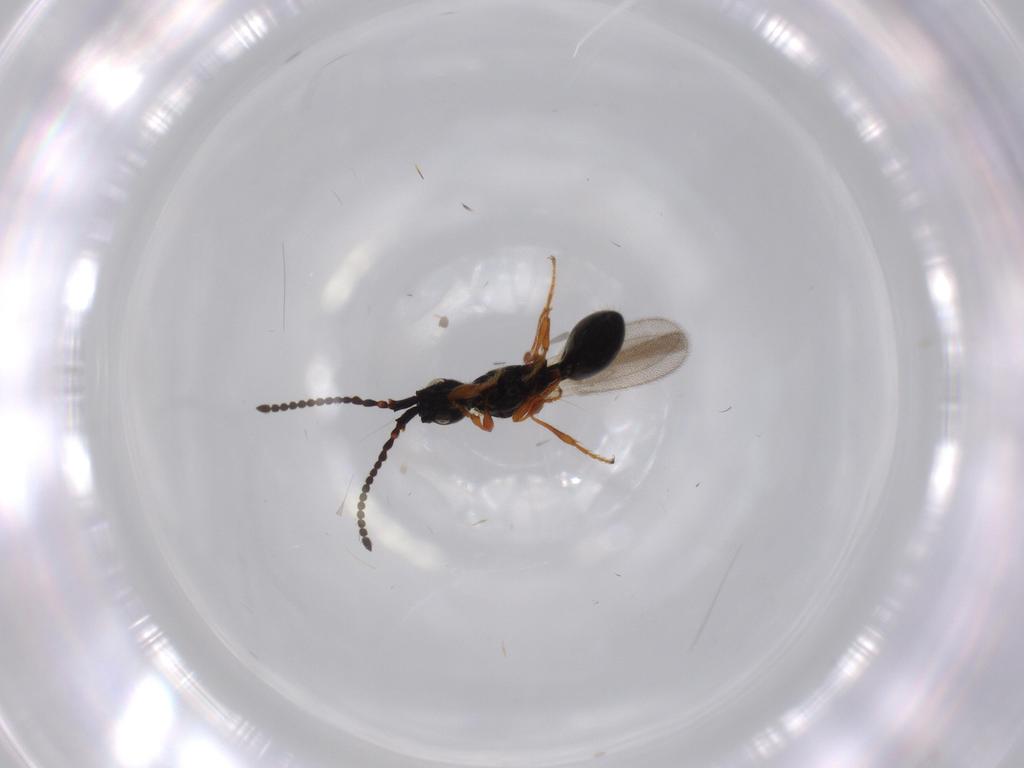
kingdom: Animalia
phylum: Arthropoda
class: Insecta
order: Hymenoptera
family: Diapriidae
